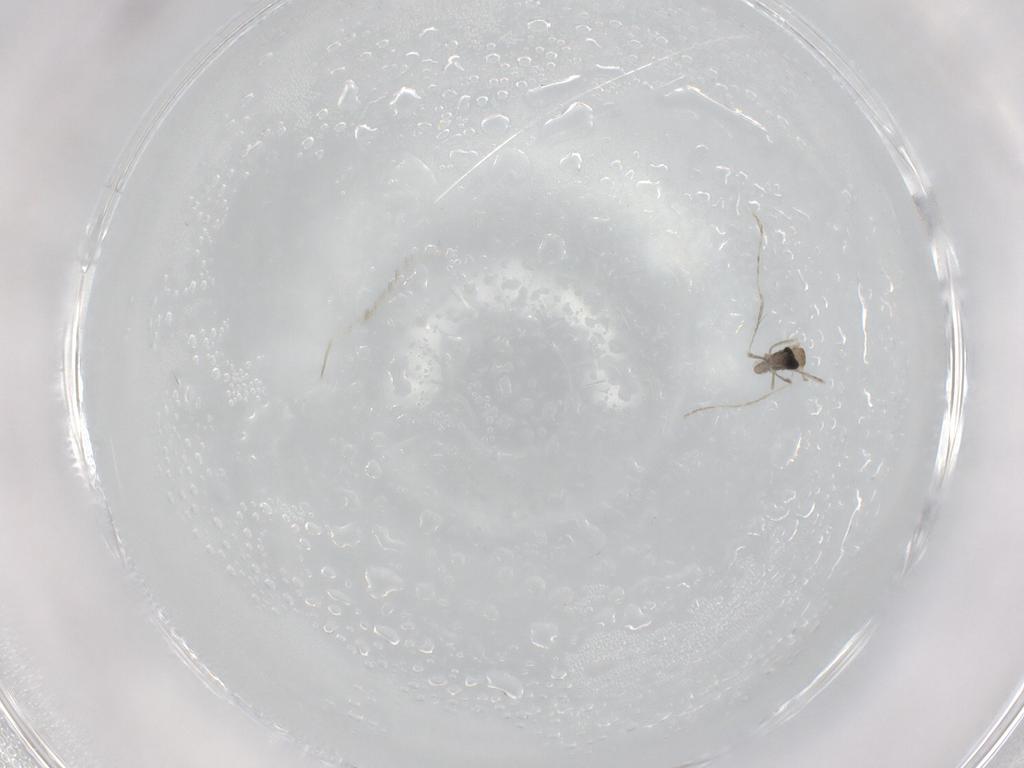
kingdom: Animalia
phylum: Arthropoda
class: Insecta
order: Diptera
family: Cecidomyiidae
